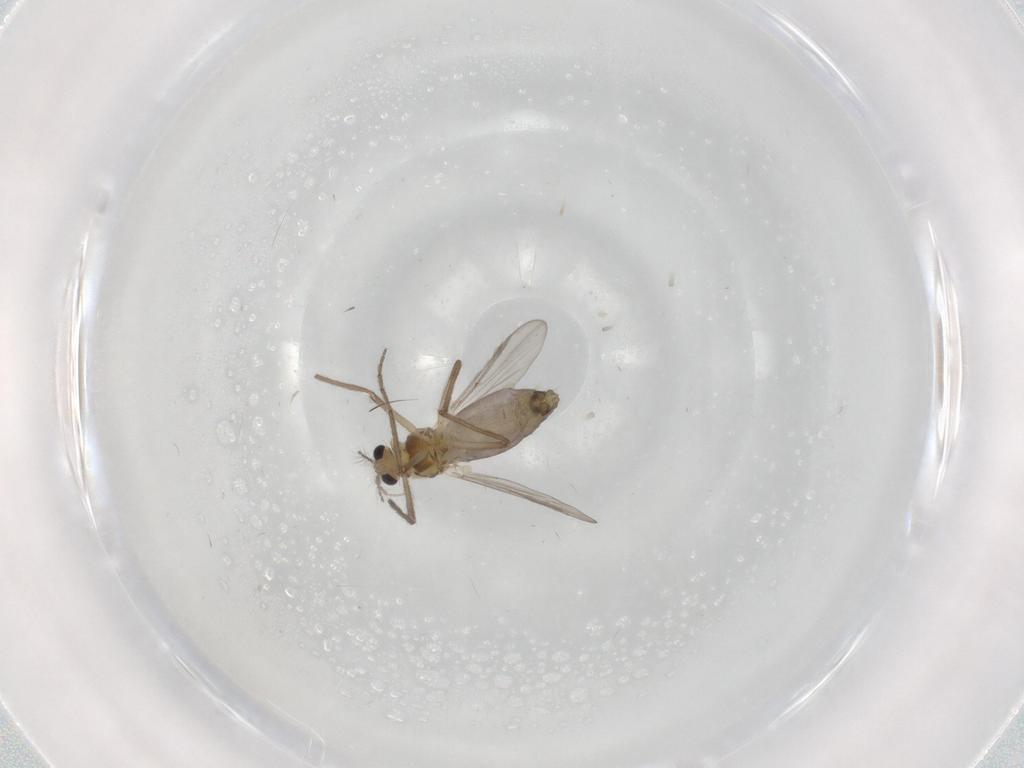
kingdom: Animalia
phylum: Arthropoda
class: Insecta
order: Diptera
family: Chironomidae
